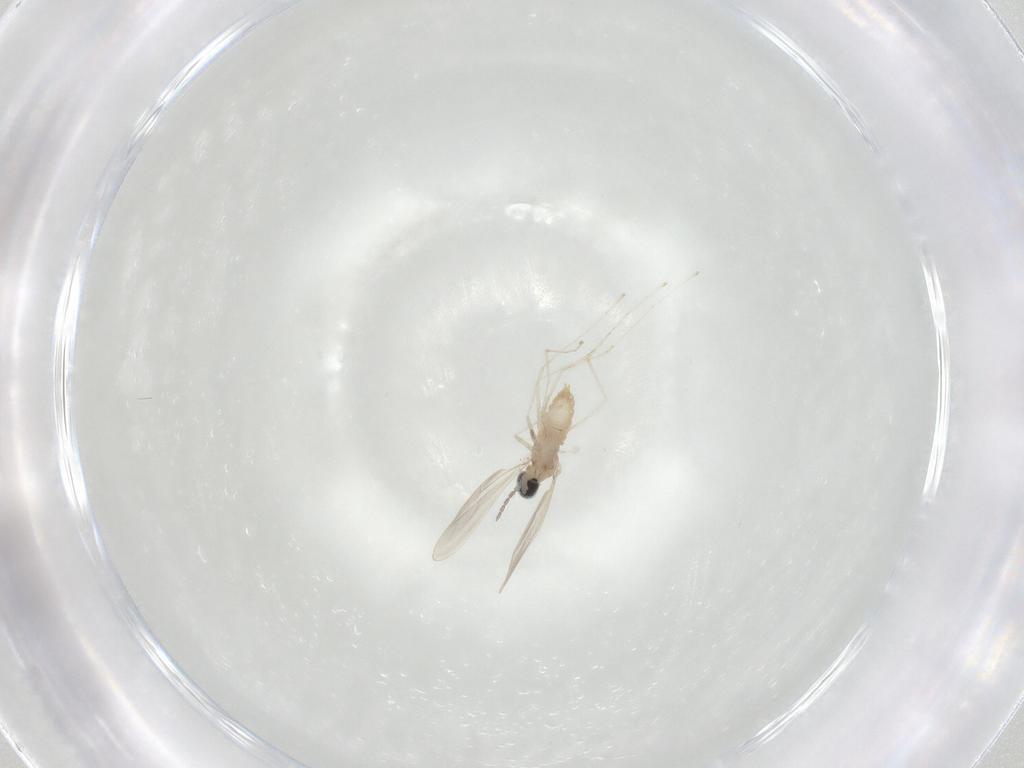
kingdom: Animalia
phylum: Arthropoda
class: Insecta
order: Diptera
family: Cecidomyiidae
